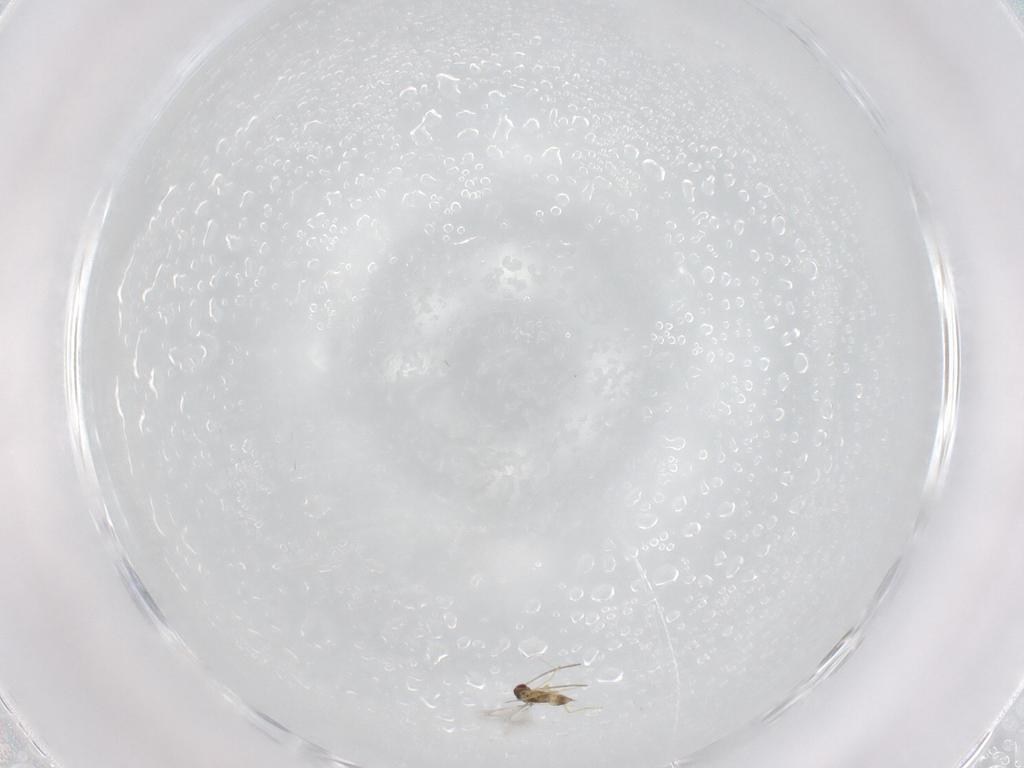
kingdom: Animalia
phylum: Arthropoda
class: Insecta
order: Hymenoptera
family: Mymaridae
